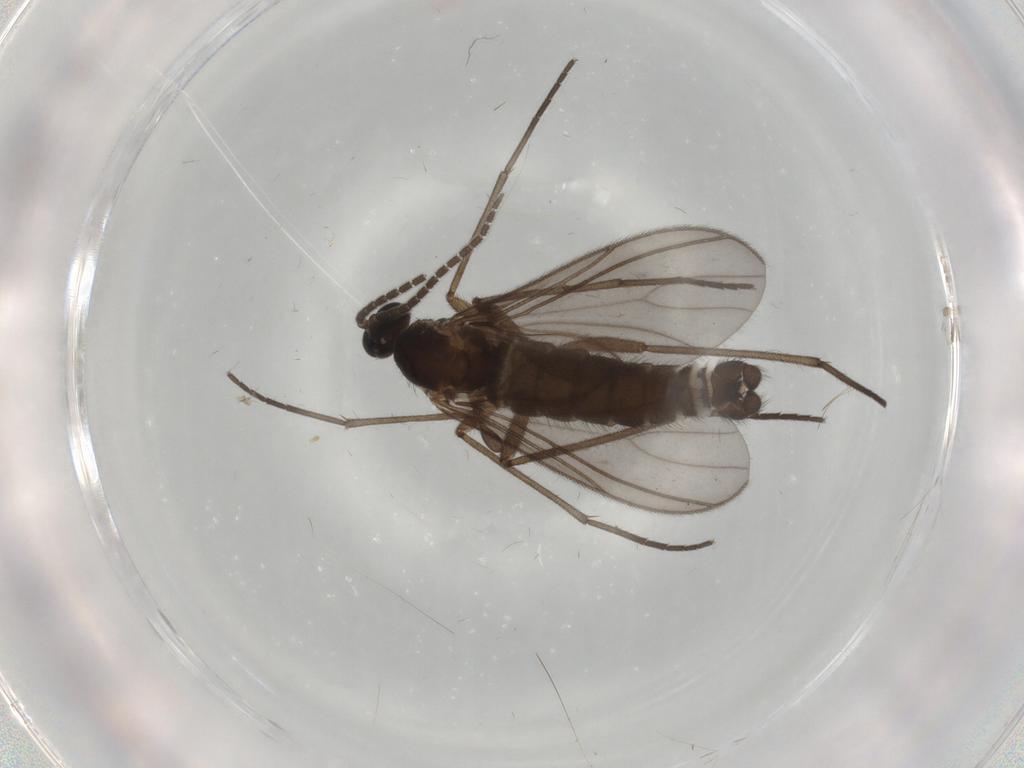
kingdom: Animalia
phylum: Arthropoda
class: Insecta
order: Diptera
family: Sciaridae
